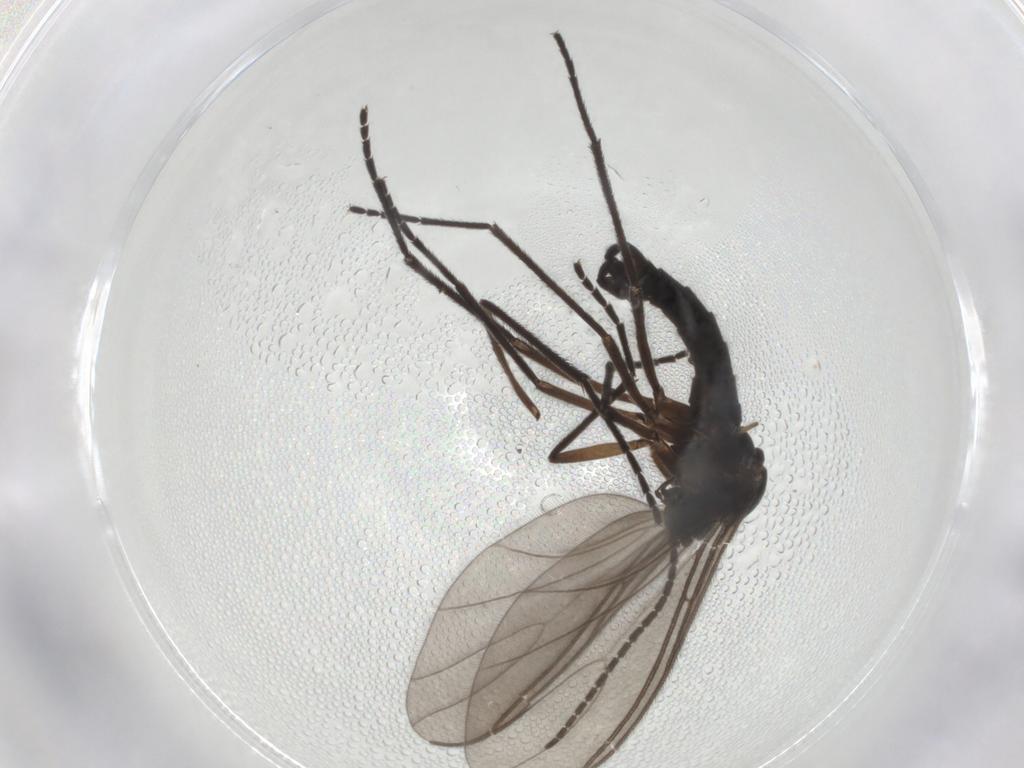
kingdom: Animalia
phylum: Arthropoda
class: Insecta
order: Diptera
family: Sciaridae
